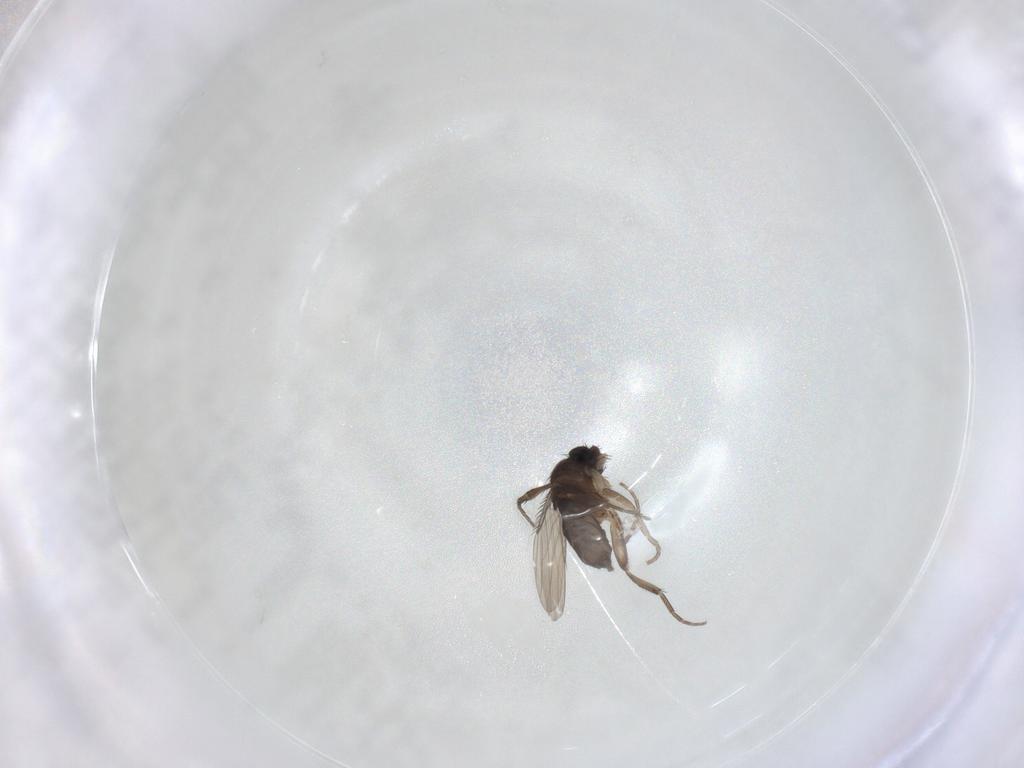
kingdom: Animalia
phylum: Arthropoda
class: Insecta
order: Diptera
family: Phoridae
